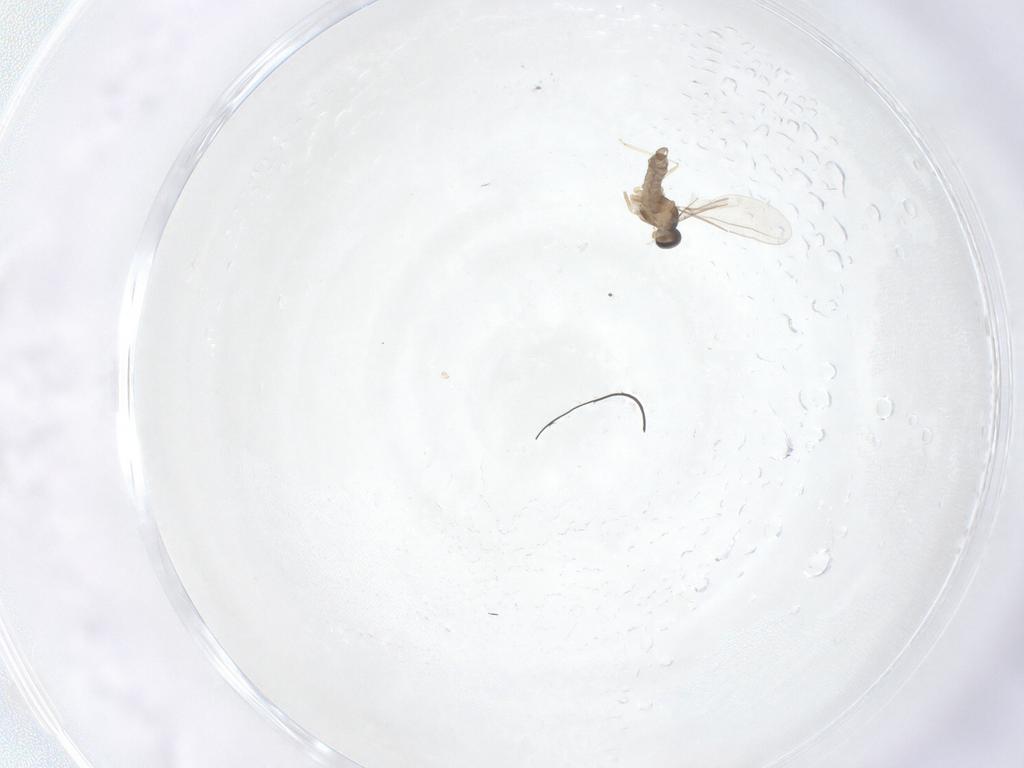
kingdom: Animalia
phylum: Arthropoda
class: Insecta
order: Diptera
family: Cecidomyiidae
